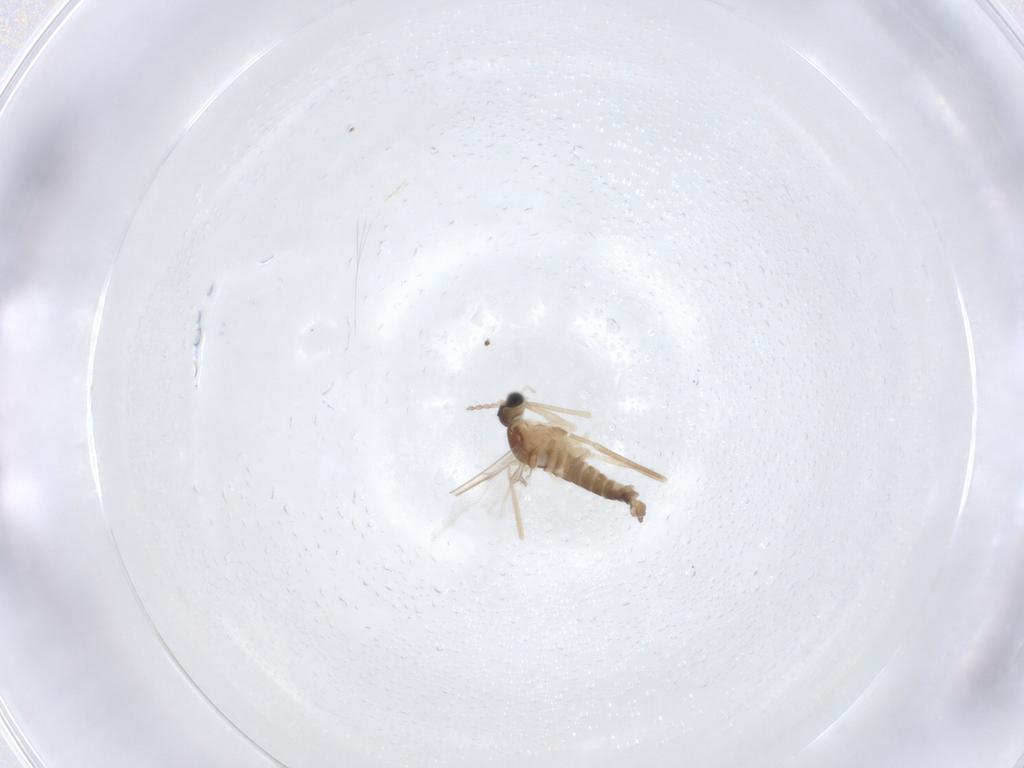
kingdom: Animalia
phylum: Arthropoda
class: Insecta
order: Diptera
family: Cecidomyiidae
